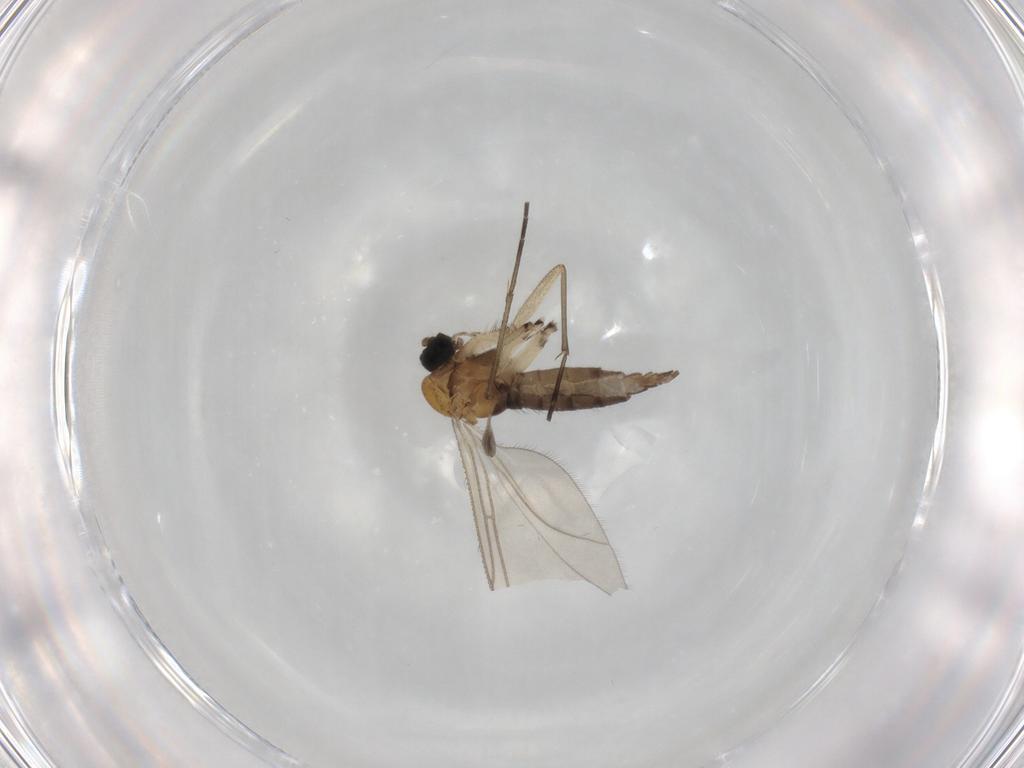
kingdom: Animalia
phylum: Arthropoda
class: Insecta
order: Diptera
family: Sciaridae
